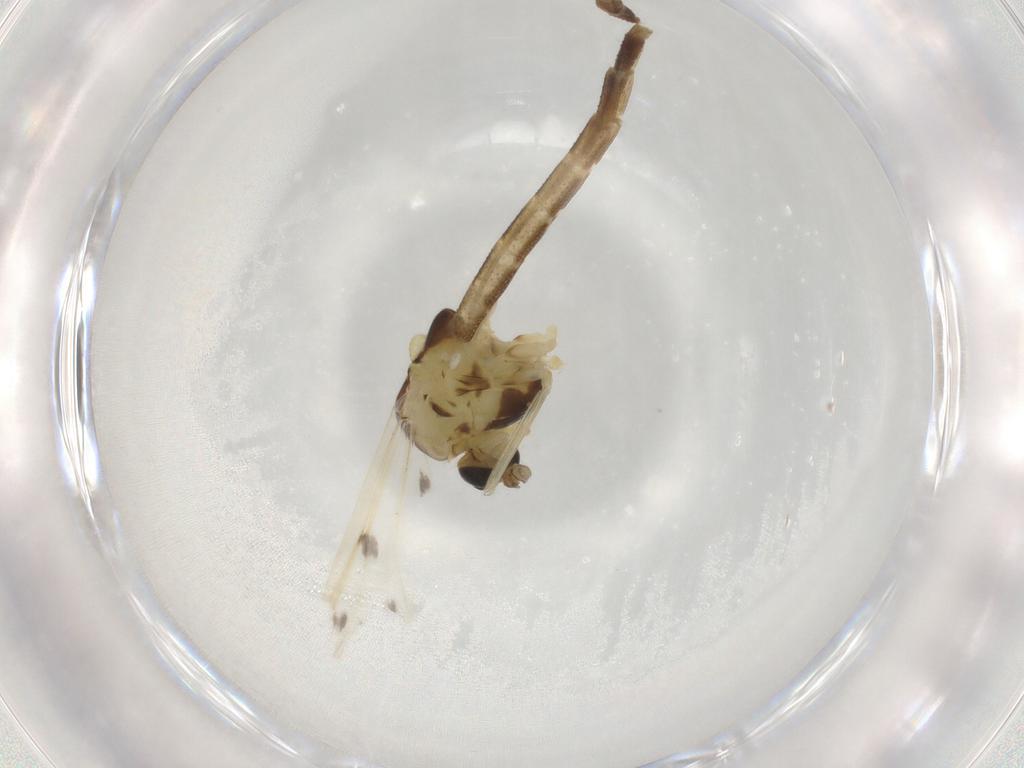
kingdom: Animalia
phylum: Arthropoda
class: Insecta
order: Diptera
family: Chironomidae
